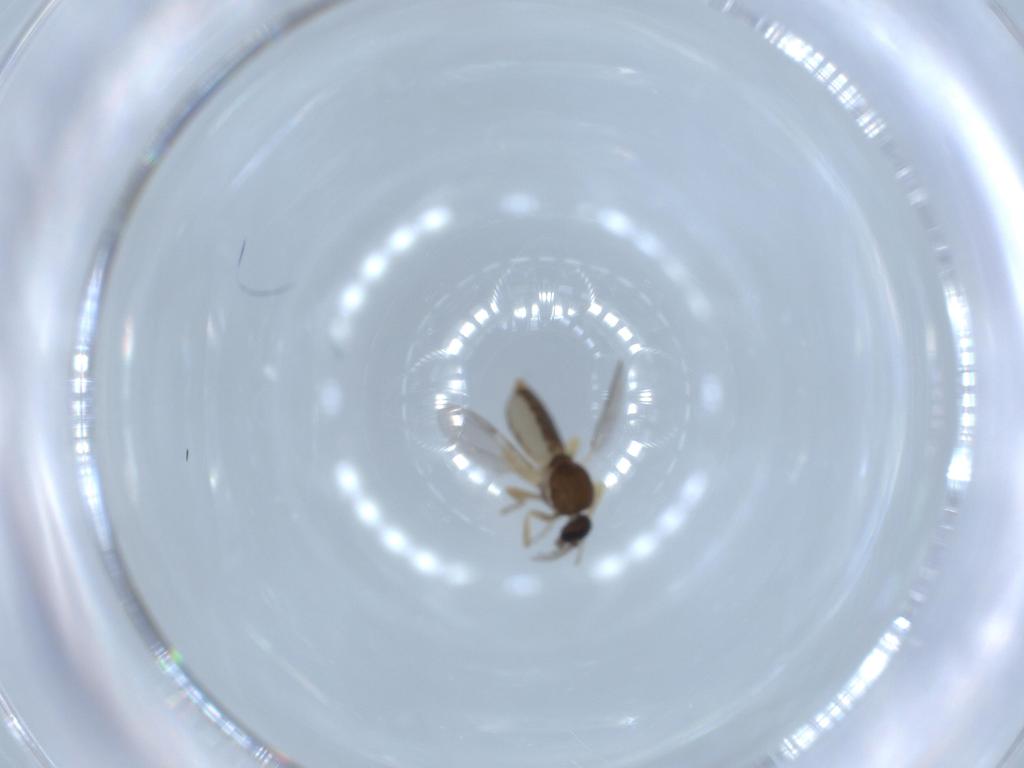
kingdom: Animalia
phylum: Arthropoda
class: Insecta
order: Diptera
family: Ceratopogonidae
